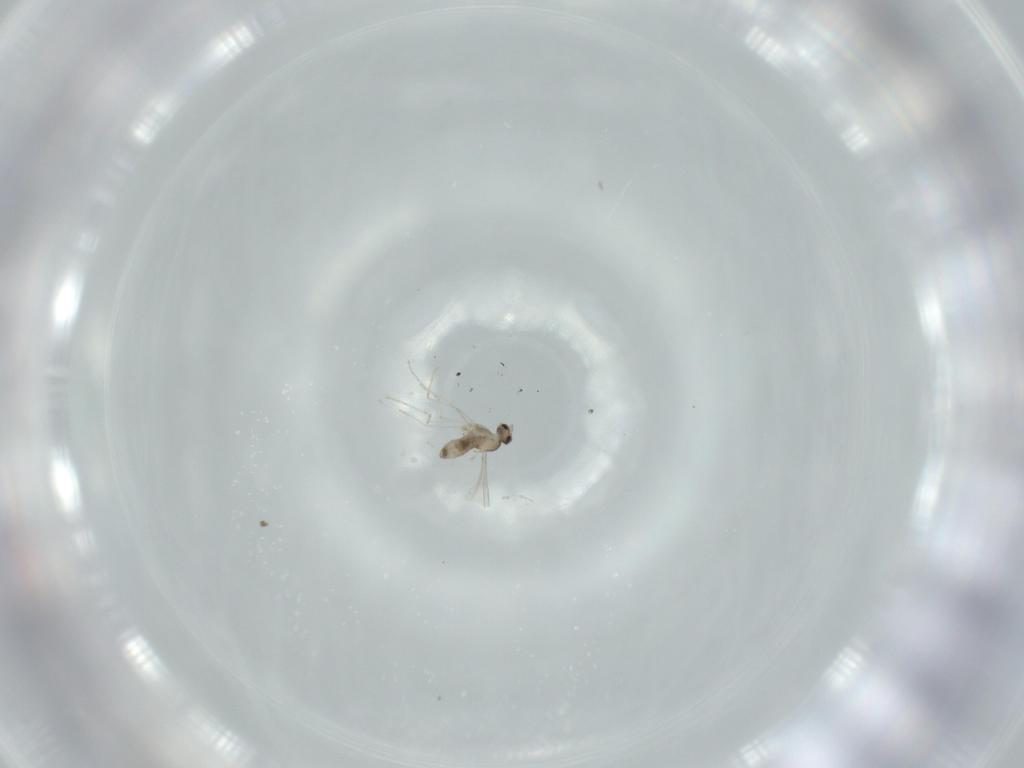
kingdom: Animalia
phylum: Arthropoda
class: Insecta
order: Diptera
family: Cecidomyiidae
